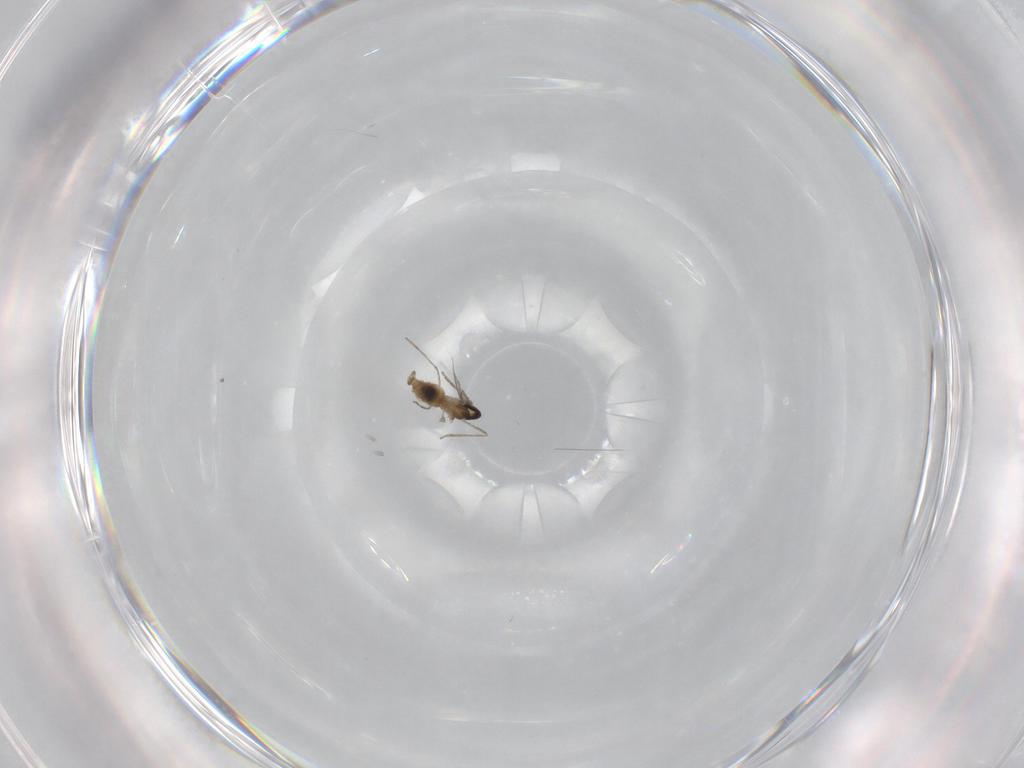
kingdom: Animalia
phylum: Arthropoda
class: Insecta
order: Diptera
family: Cecidomyiidae
